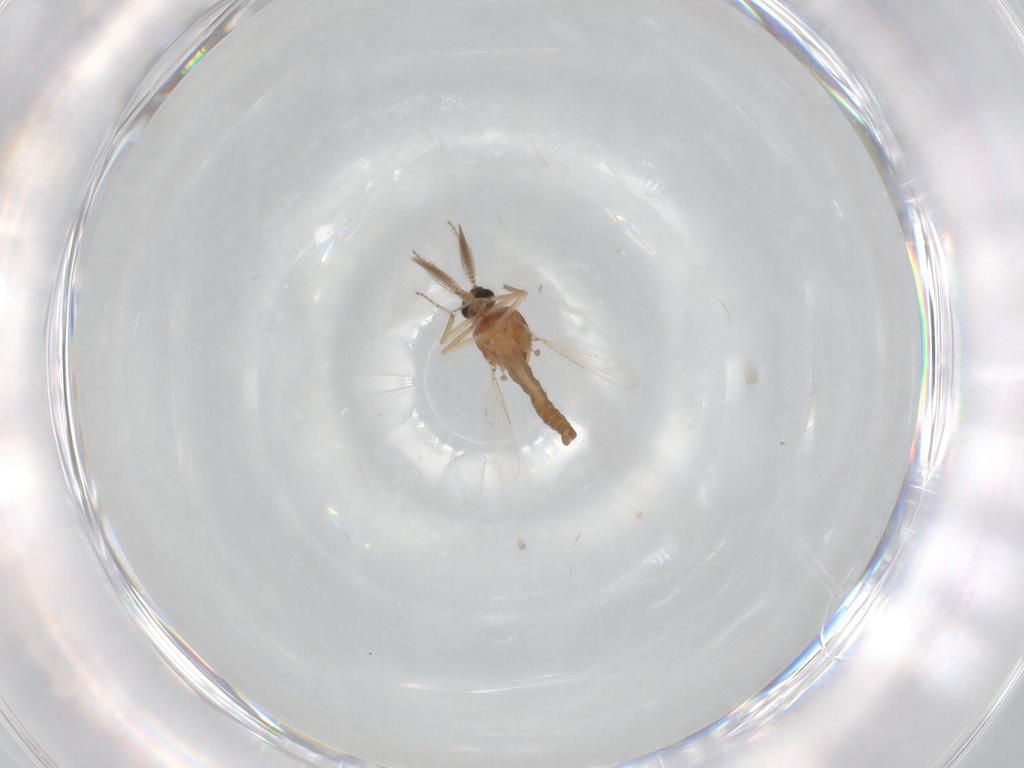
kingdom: Animalia
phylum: Arthropoda
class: Insecta
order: Diptera
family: Ceratopogonidae
